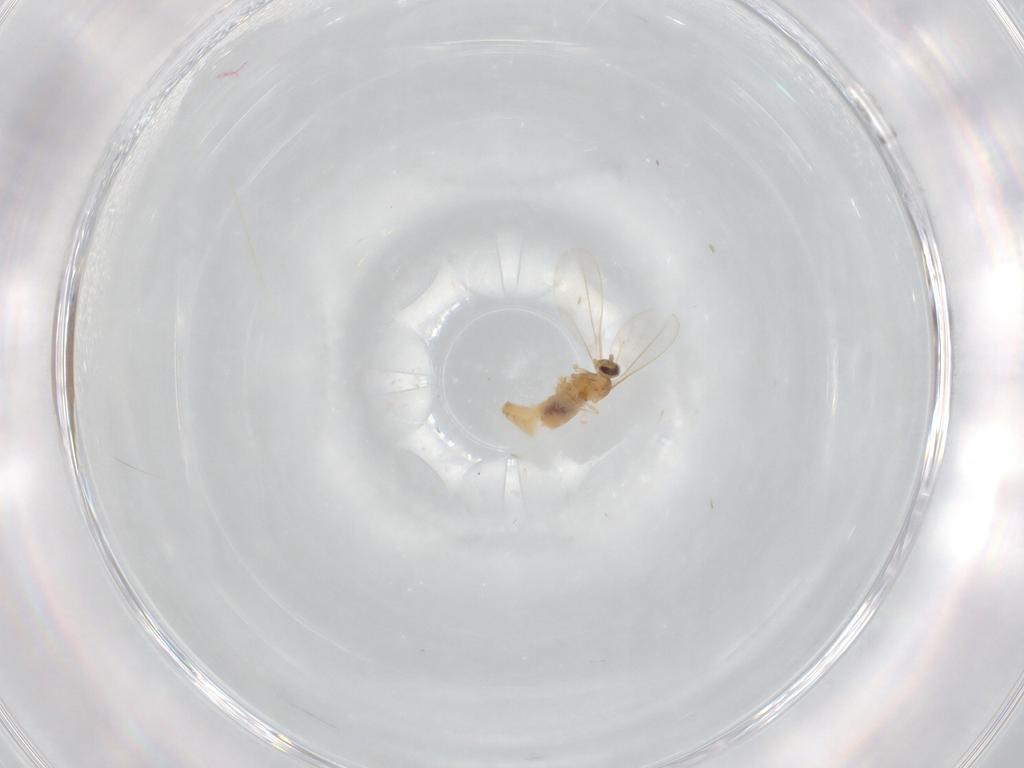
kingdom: Animalia
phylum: Arthropoda
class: Insecta
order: Diptera
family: Cecidomyiidae
